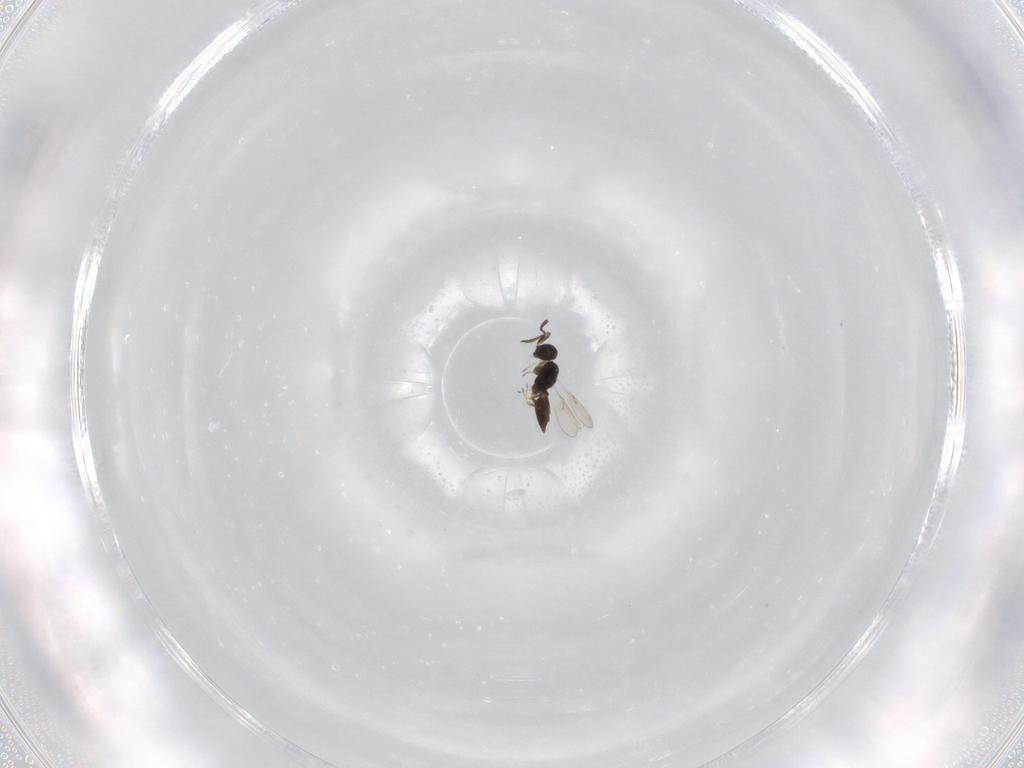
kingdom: Animalia
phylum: Arthropoda
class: Insecta
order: Hymenoptera
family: Scelionidae
